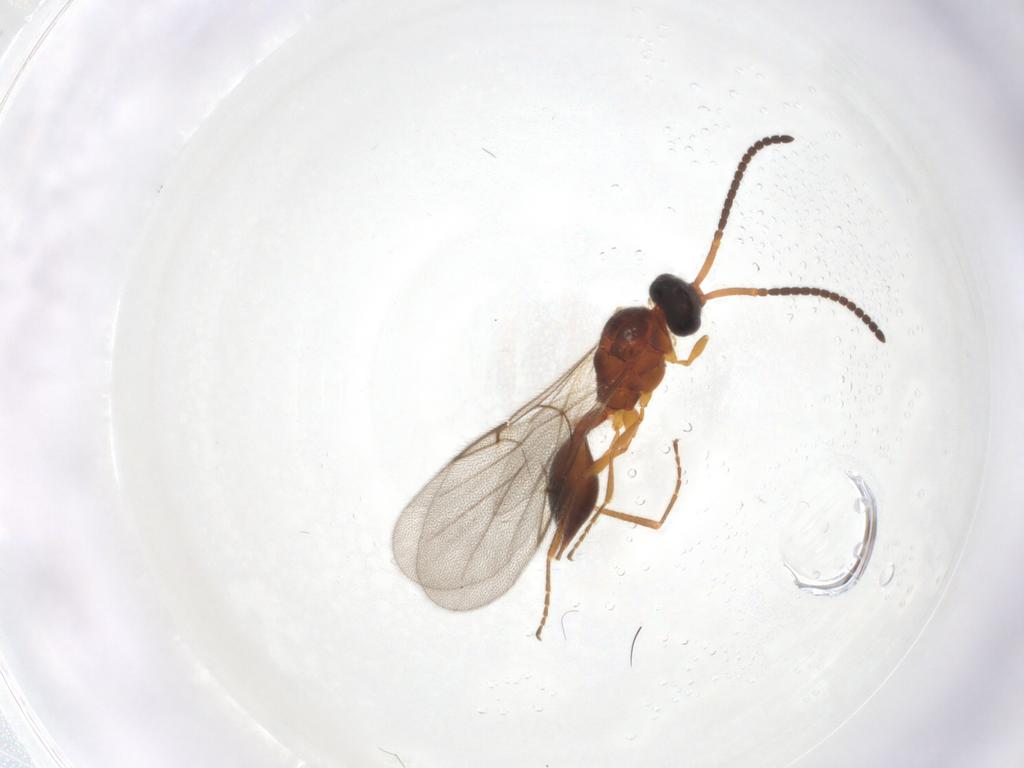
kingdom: Animalia
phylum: Arthropoda
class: Insecta
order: Hymenoptera
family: Diapriidae
